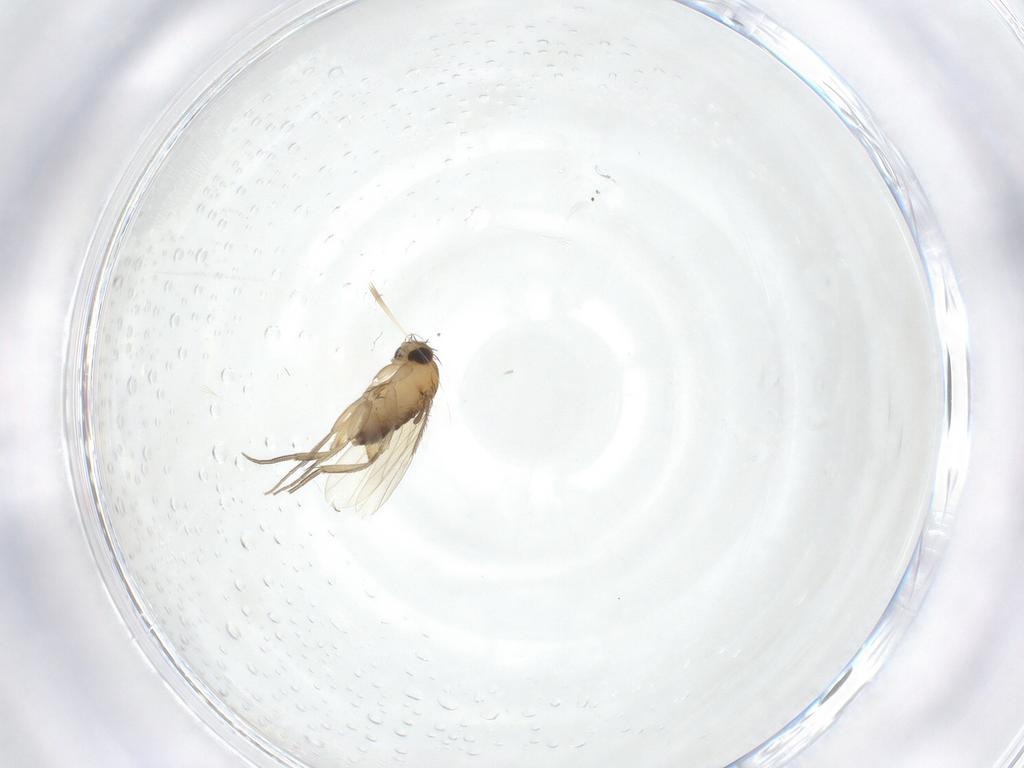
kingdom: Animalia
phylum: Arthropoda
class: Insecta
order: Diptera
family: Phoridae
